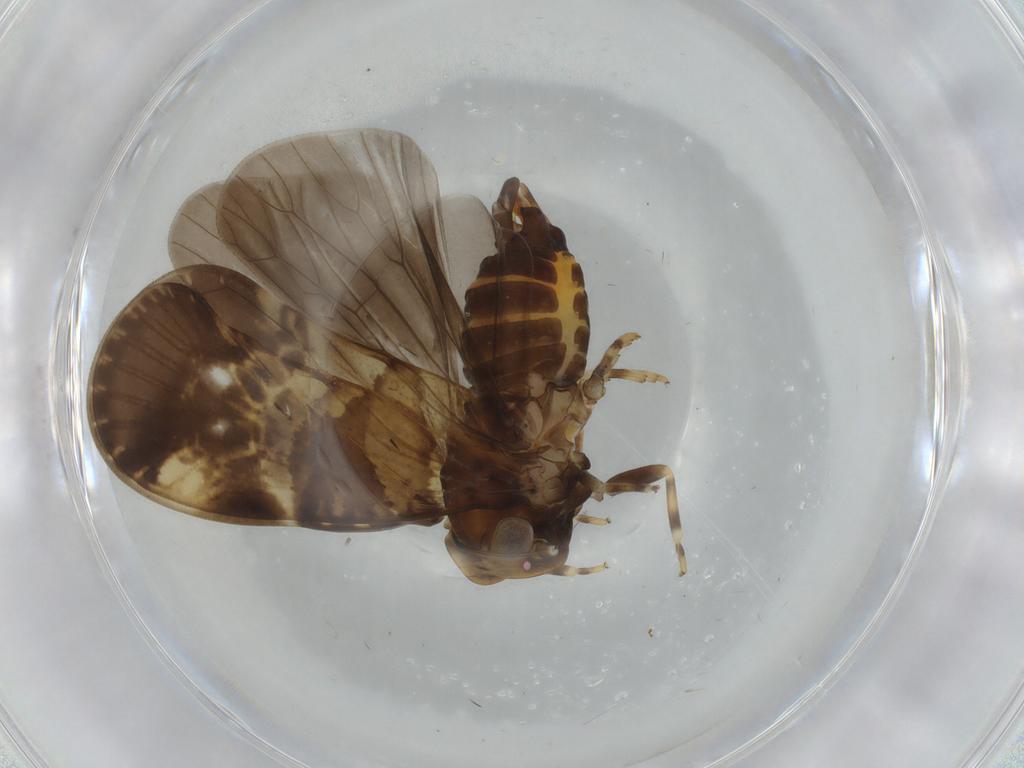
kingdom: Animalia
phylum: Arthropoda
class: Insecta
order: Hemiptera
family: Cixiidae
